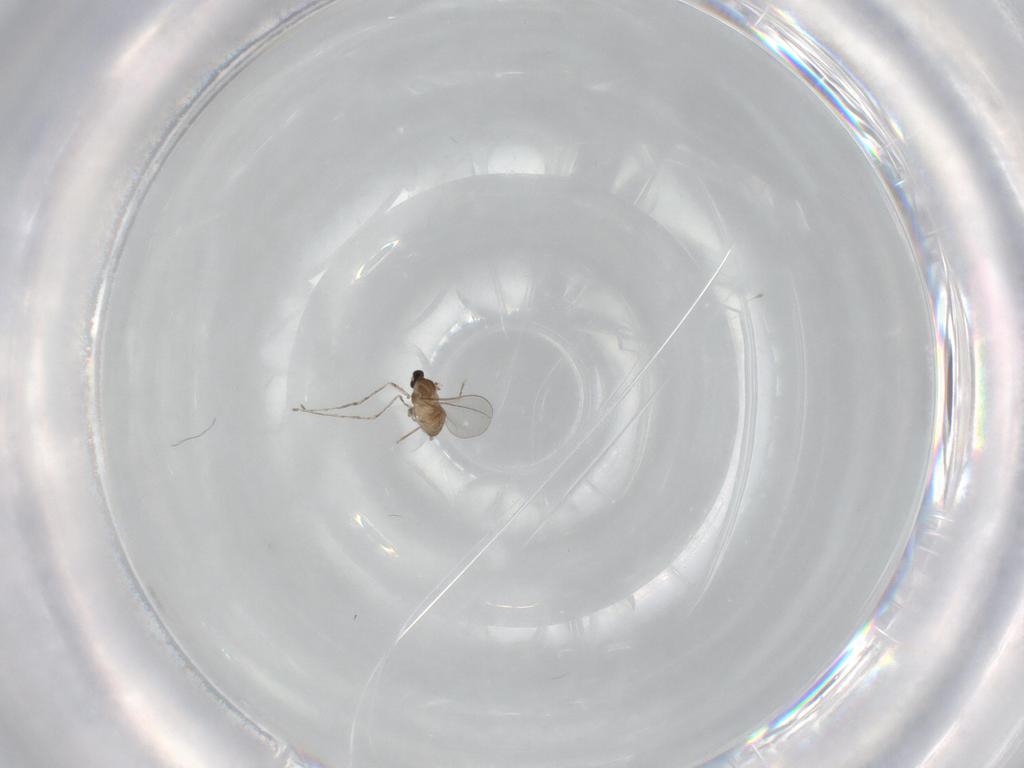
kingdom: Animalia
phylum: Arthropoda
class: Insecta
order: Diptera
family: Cecidomyiidae
